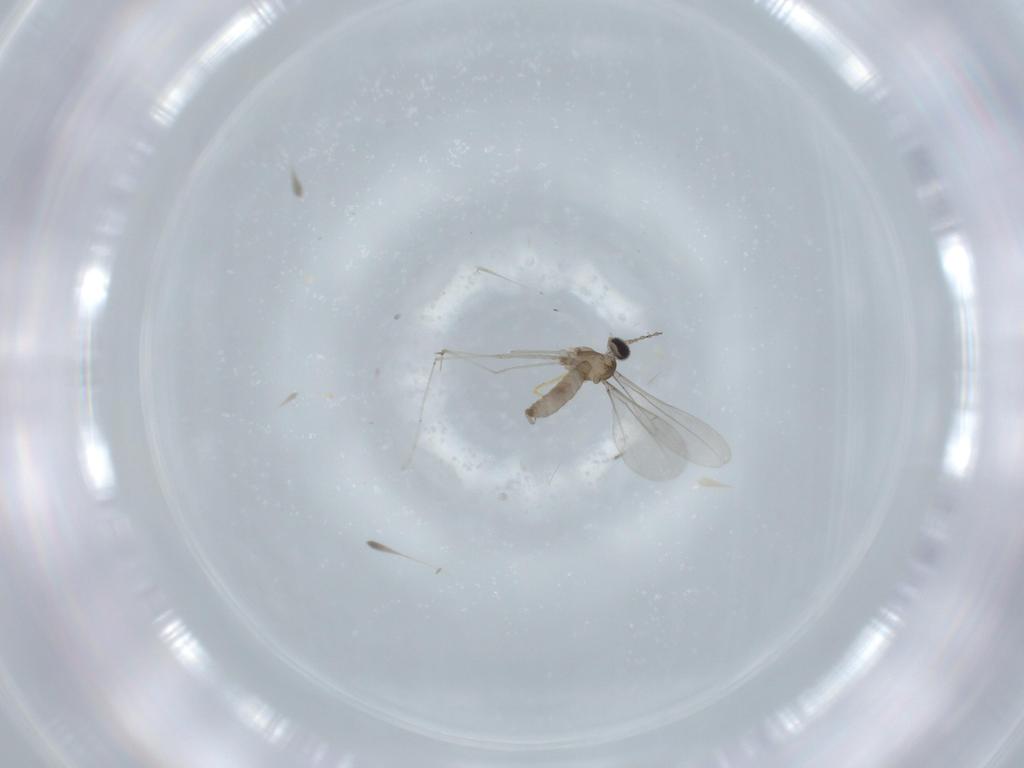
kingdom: Animalia
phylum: Arthropoda
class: Insecta
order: Diptera
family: Cecidomyiidae
